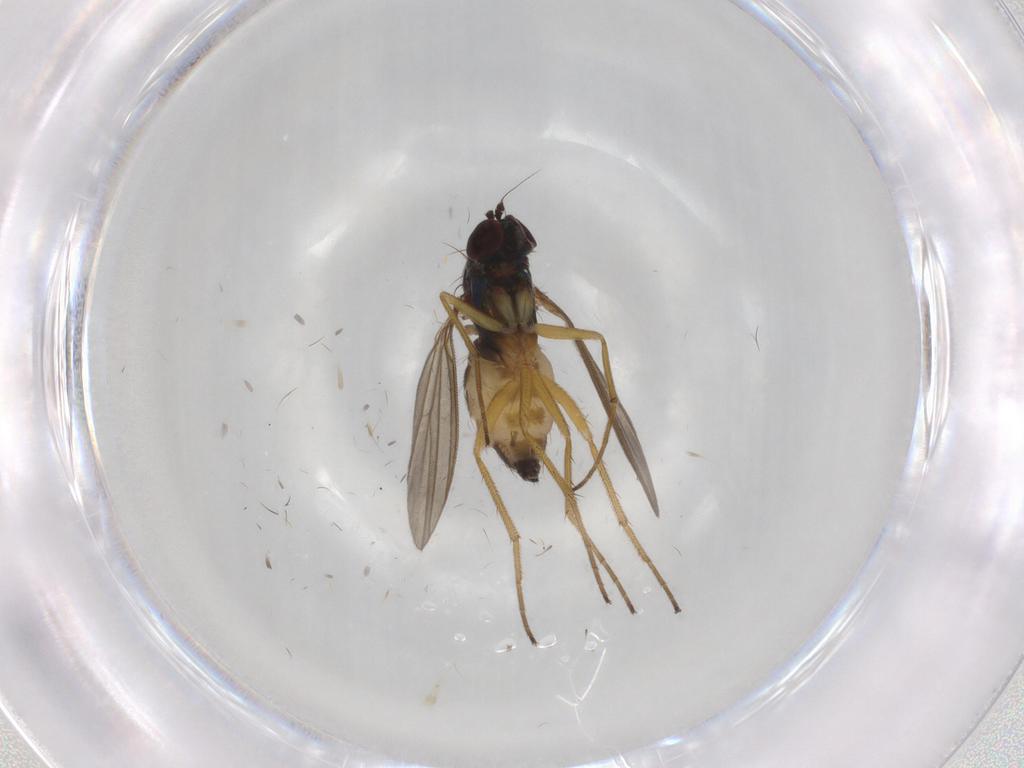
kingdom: Animalia
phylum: Arthropoda
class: Insecta
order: Diptera
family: Dolichopodidae
